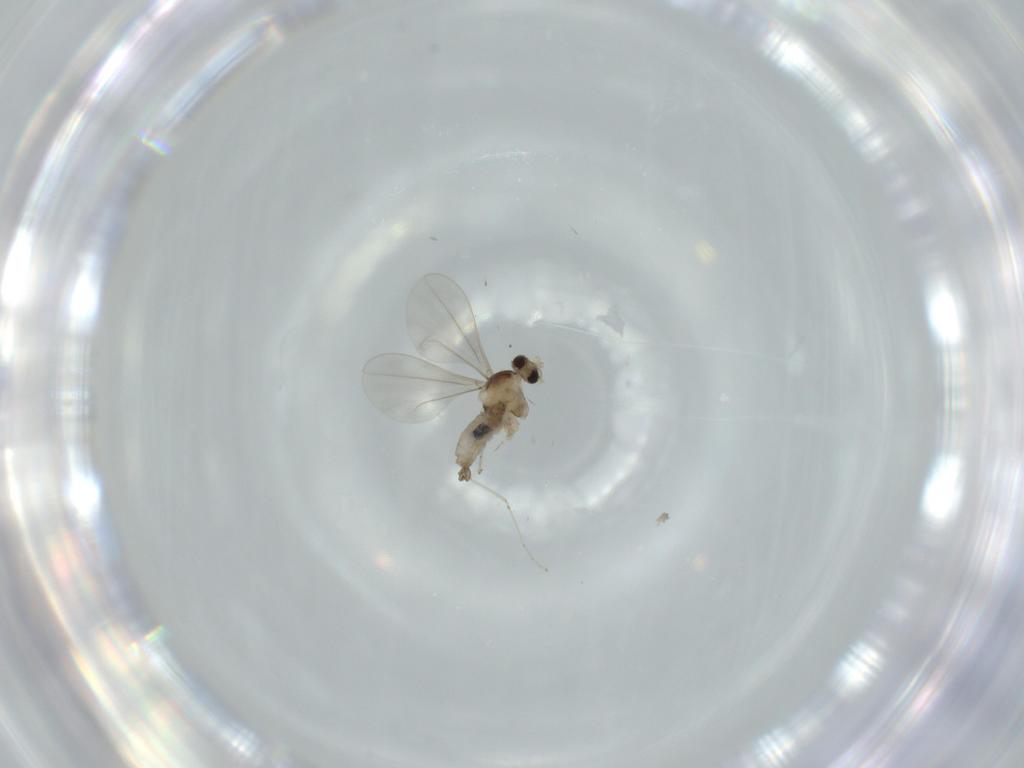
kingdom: Animalia
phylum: Arthropoda
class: Insecta
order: Diptera
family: Cecidomyiidae
